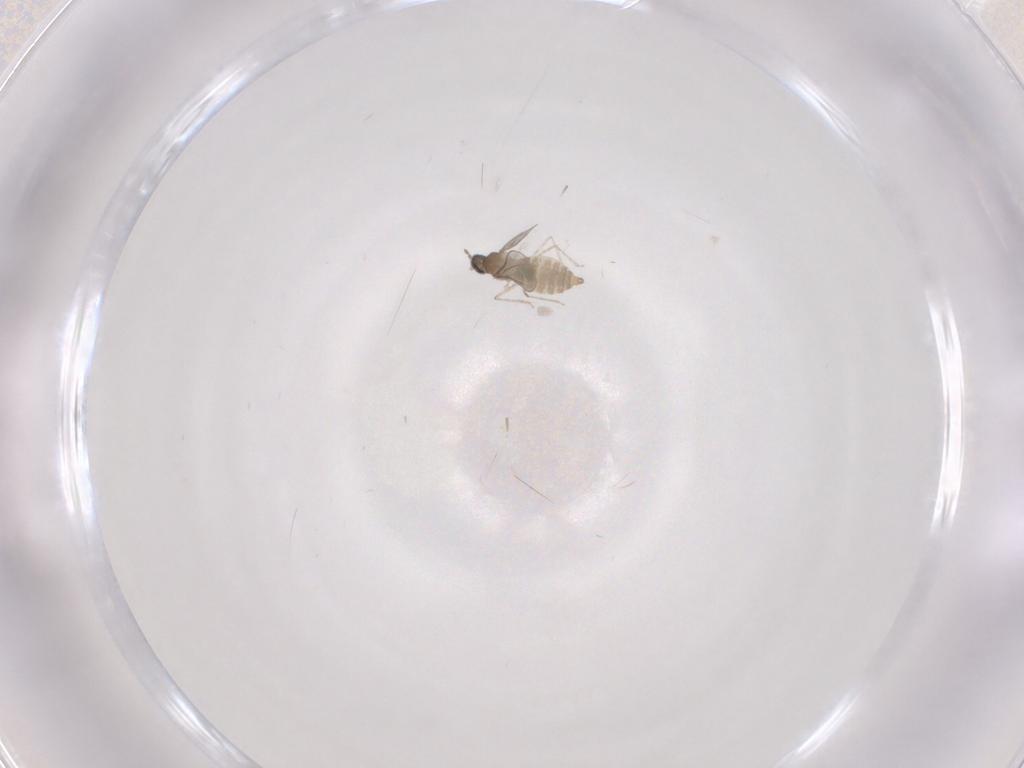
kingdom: Animalia
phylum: Arthropoda
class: Insecta
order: Diptera
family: Cecidomyiidae
